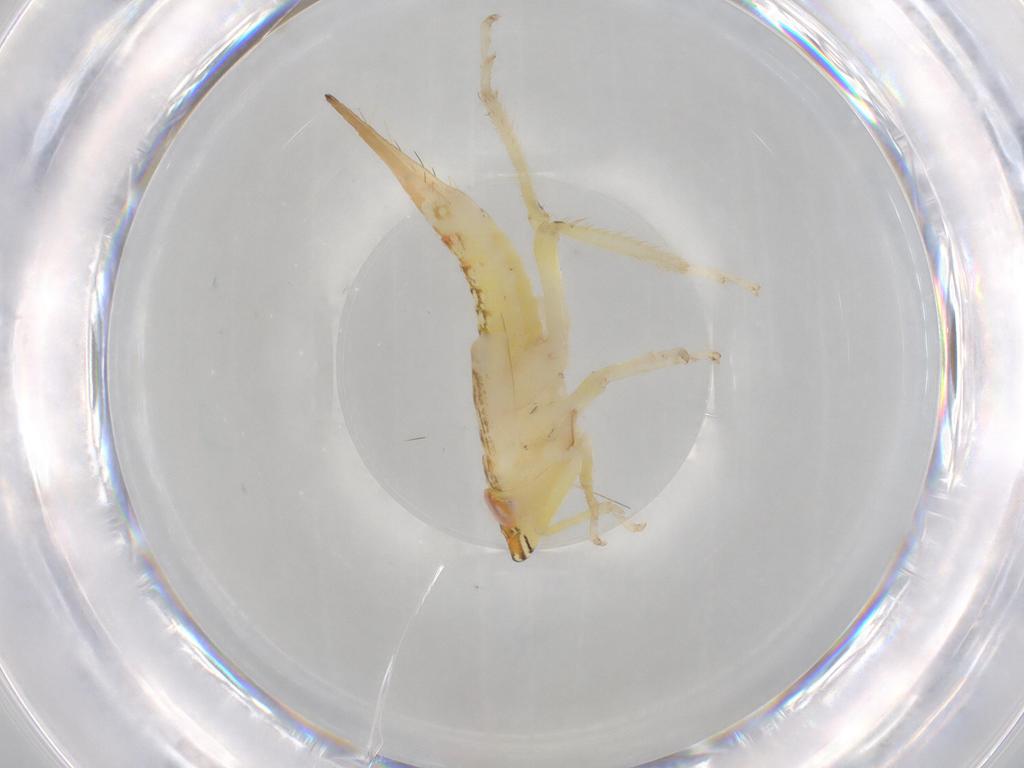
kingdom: Animalia
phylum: Arthropoda
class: Insecta
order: Hemiptera
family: Cicadellidae
